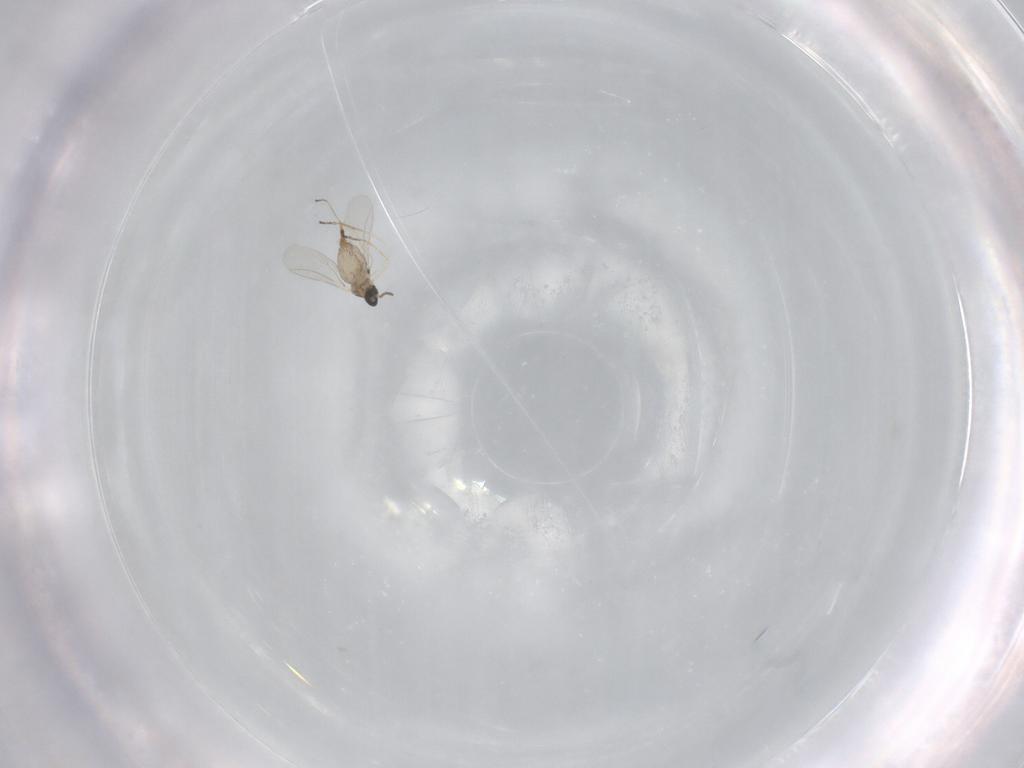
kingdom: Animalia
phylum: Arthropoda
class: Insecta
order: Diptera
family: Cecidomyiidae
